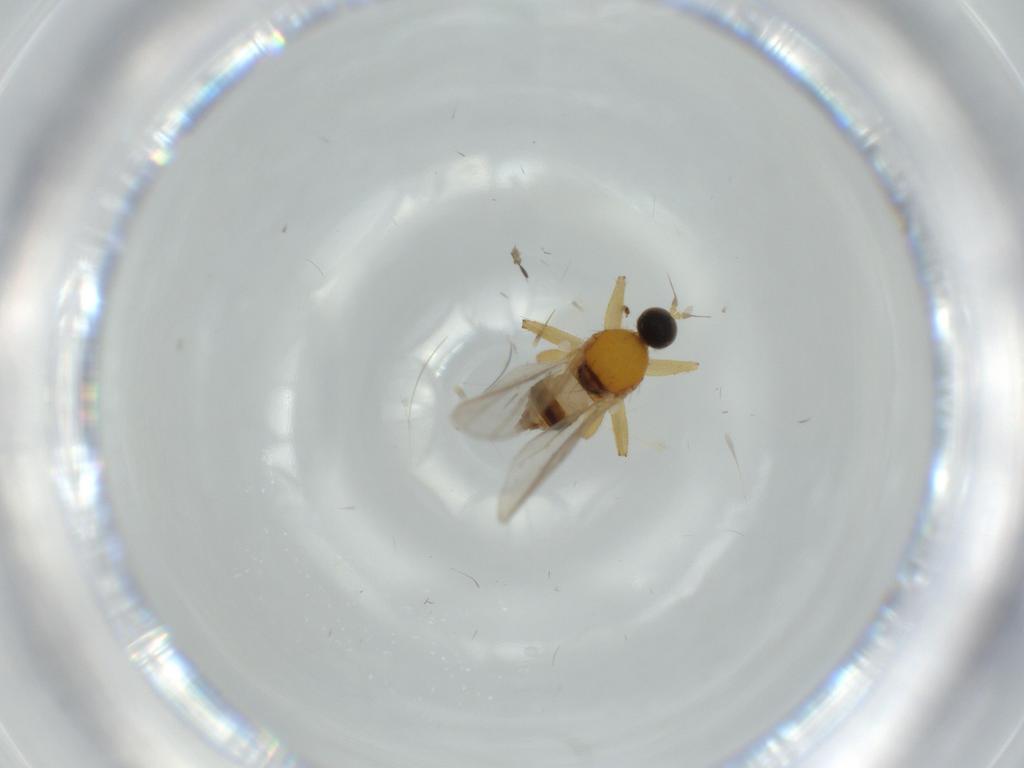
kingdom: Animalia
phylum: Arthropoda
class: Insecta
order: Diptera
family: Hybotidae
